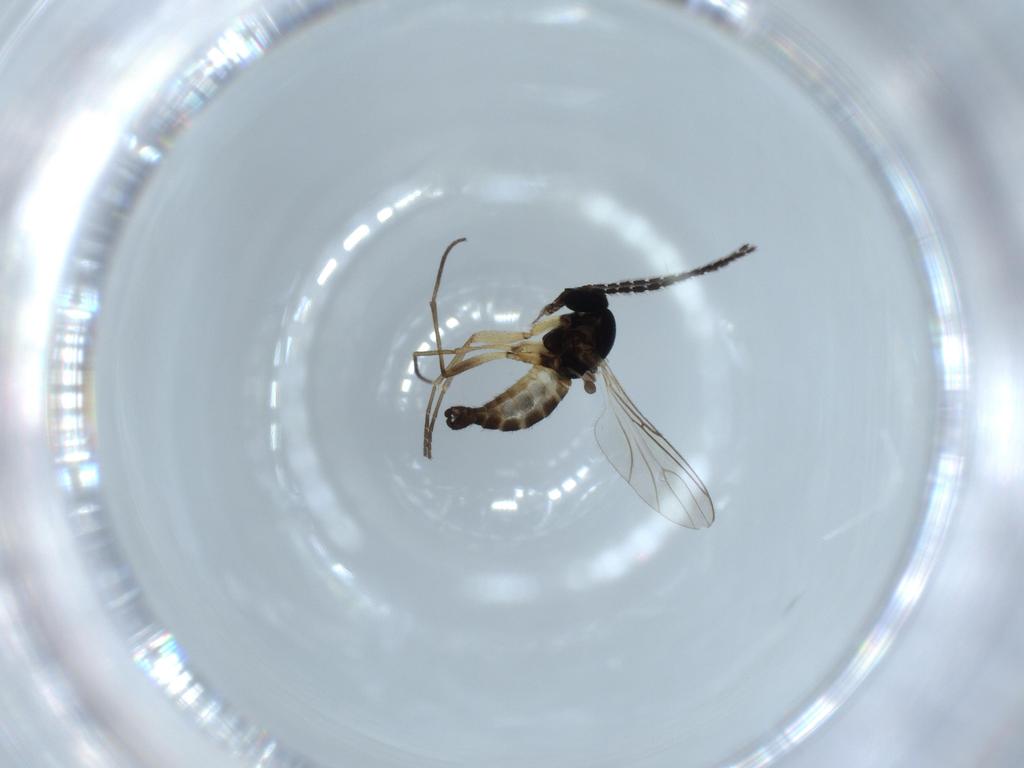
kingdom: Animalia
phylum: Arthropoda
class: Insecta
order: Diptera
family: Sciaridae
